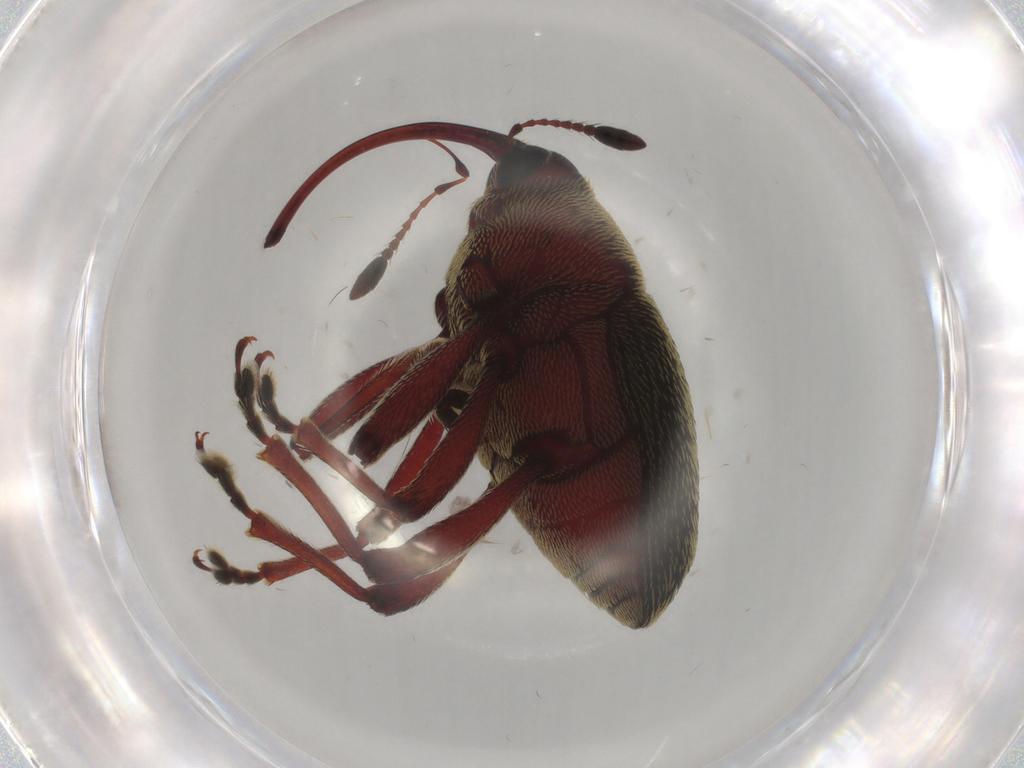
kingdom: Animalia
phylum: Arthropoda
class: Insecta
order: Coleoptera
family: Curculionidae
